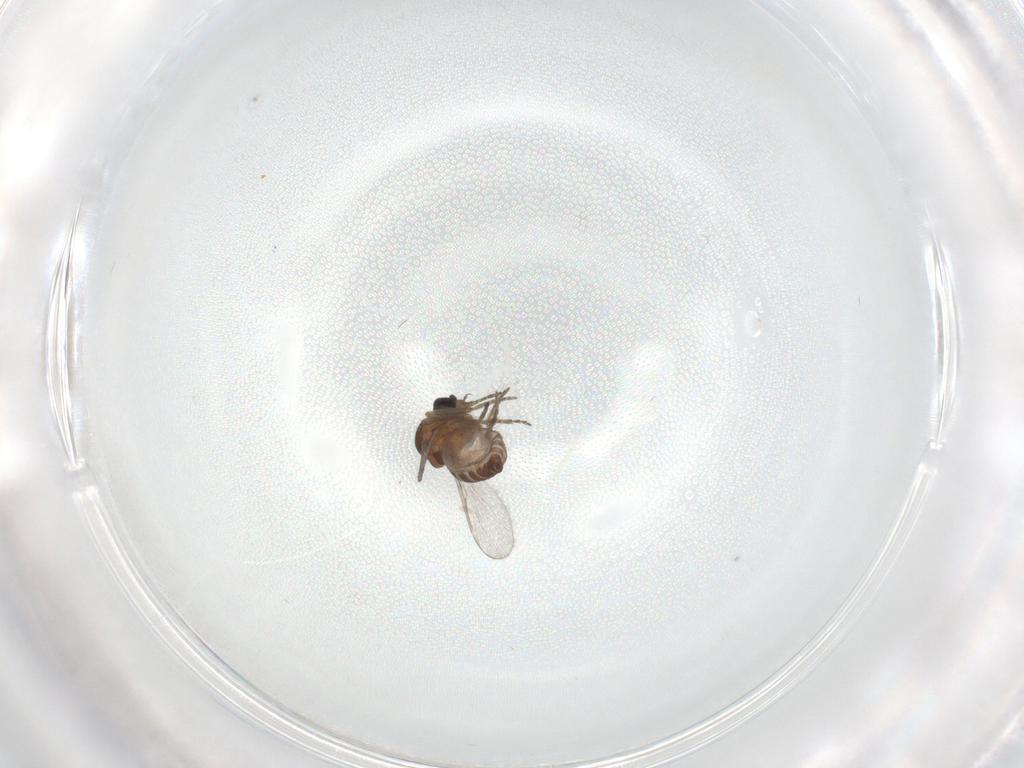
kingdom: Animalia
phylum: Arthropoda
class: Insecta
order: Diptera
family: Ceratopogonidae
